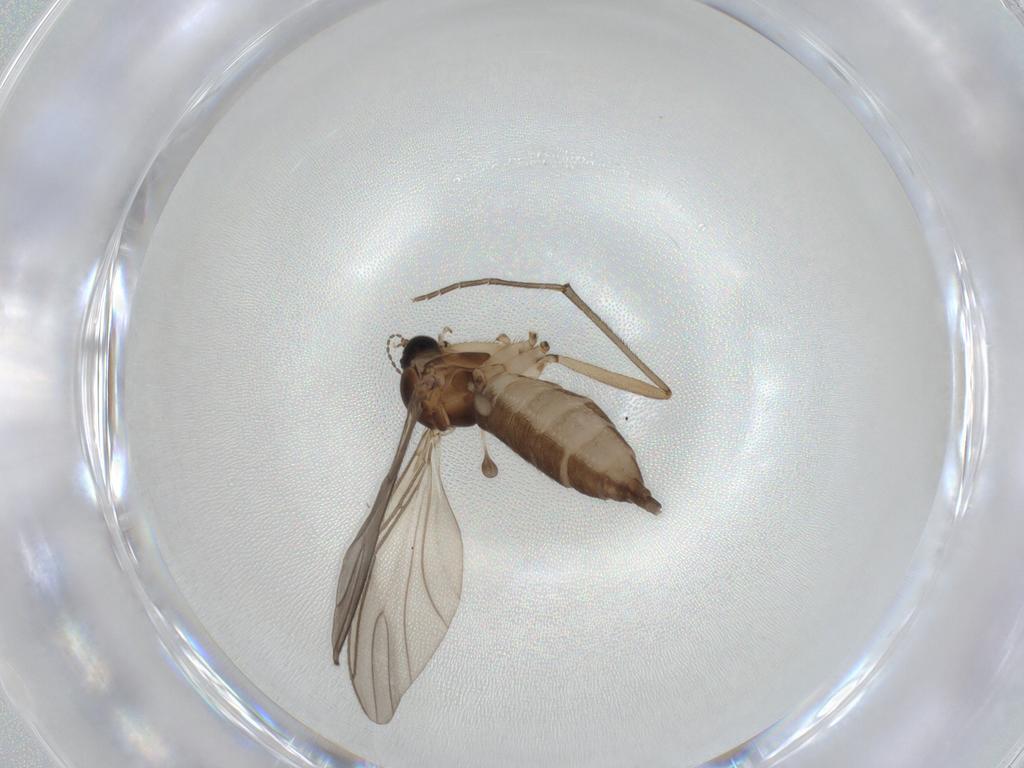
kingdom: Animalia
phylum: Arthropoda
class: Insecta
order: Diptera
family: Sciaridae
